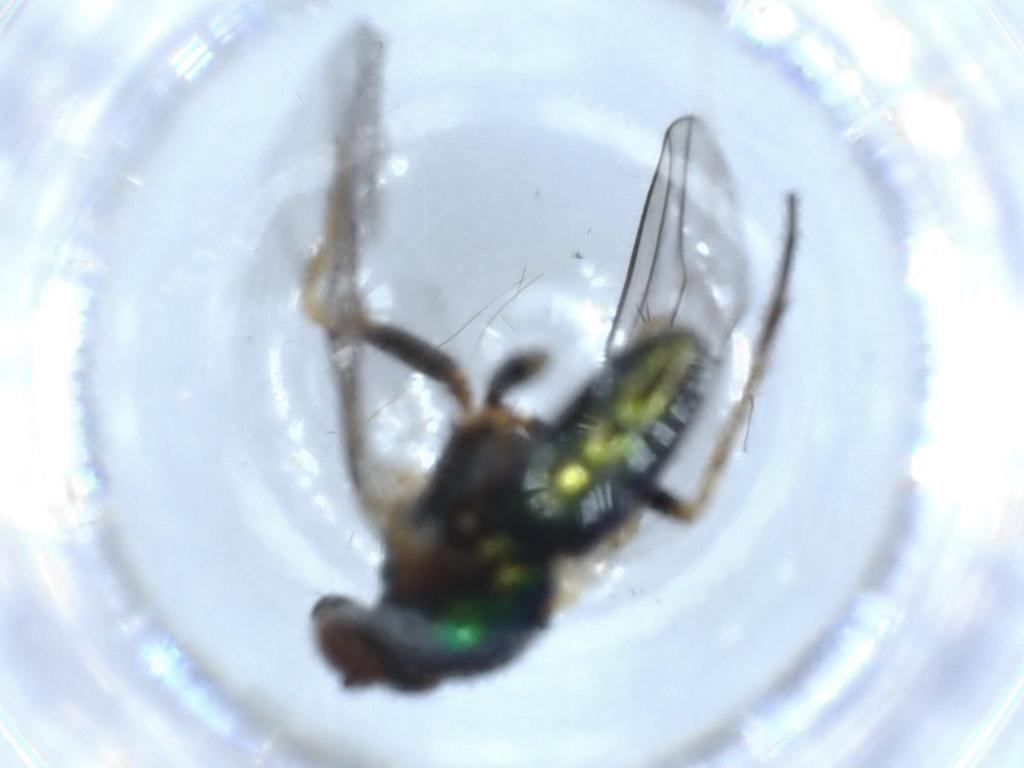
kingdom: Animalia
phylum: Arthropoda
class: Insecta
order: Diptera
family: Dolichopodidae
